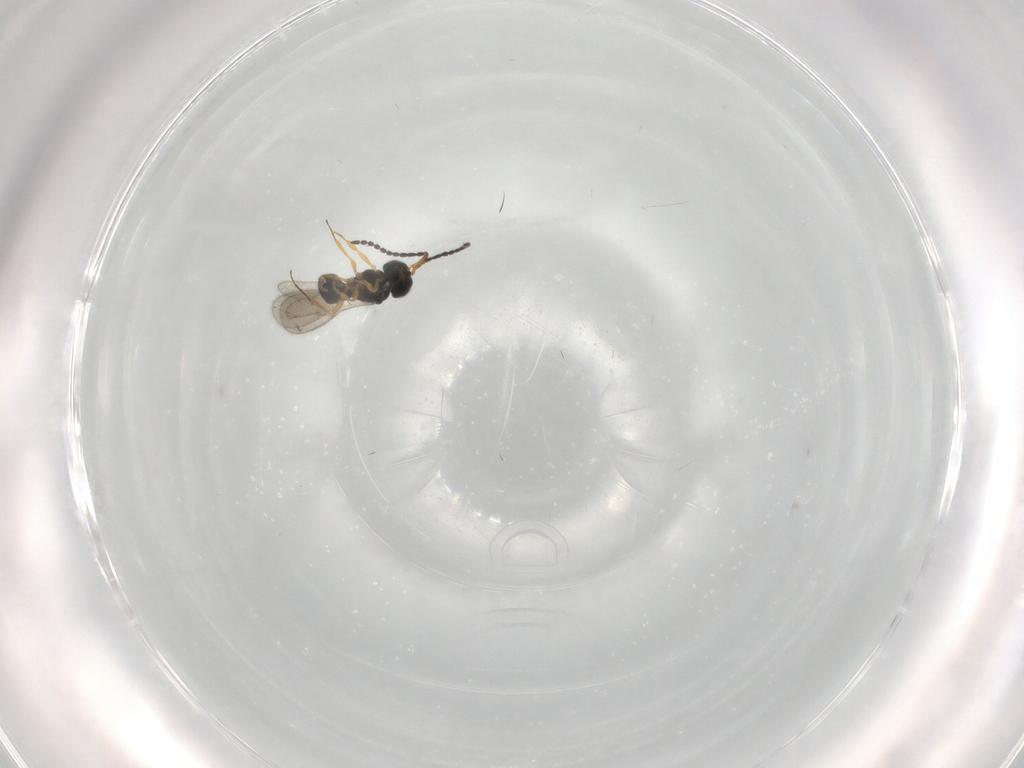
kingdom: Animalia
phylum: Arthropoda
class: Insecta
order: Hymenoptera
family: Scelionidae
